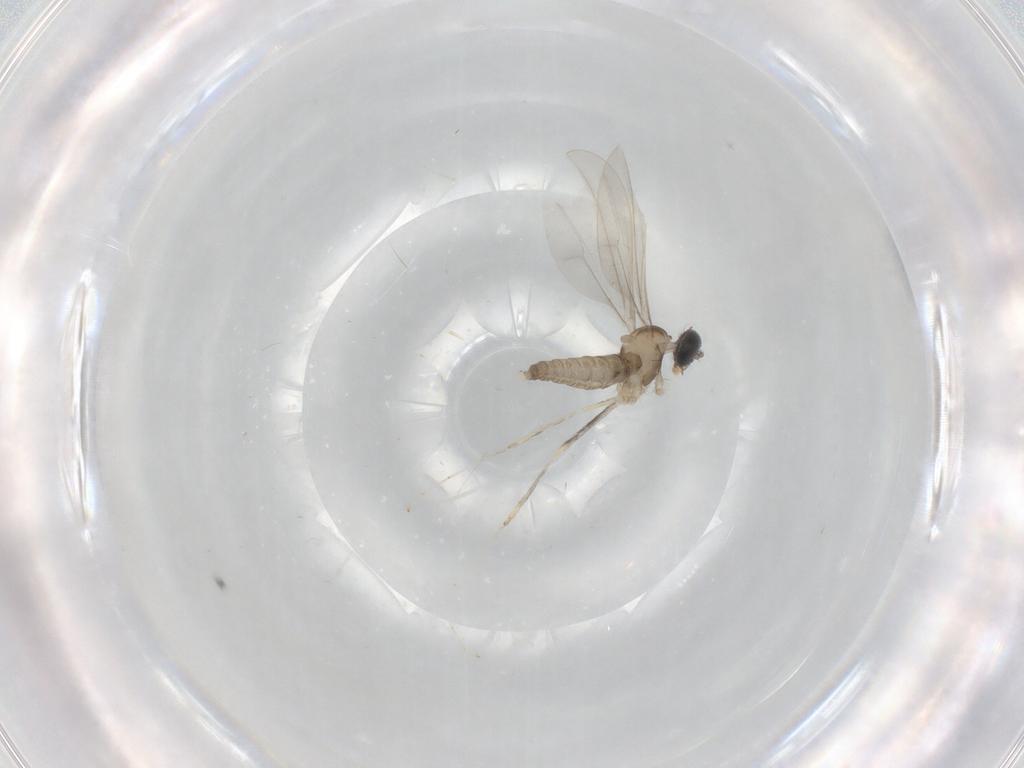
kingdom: Animalia
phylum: Arthropoda
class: Insecta
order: Diptera
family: Cecidomyiidae
